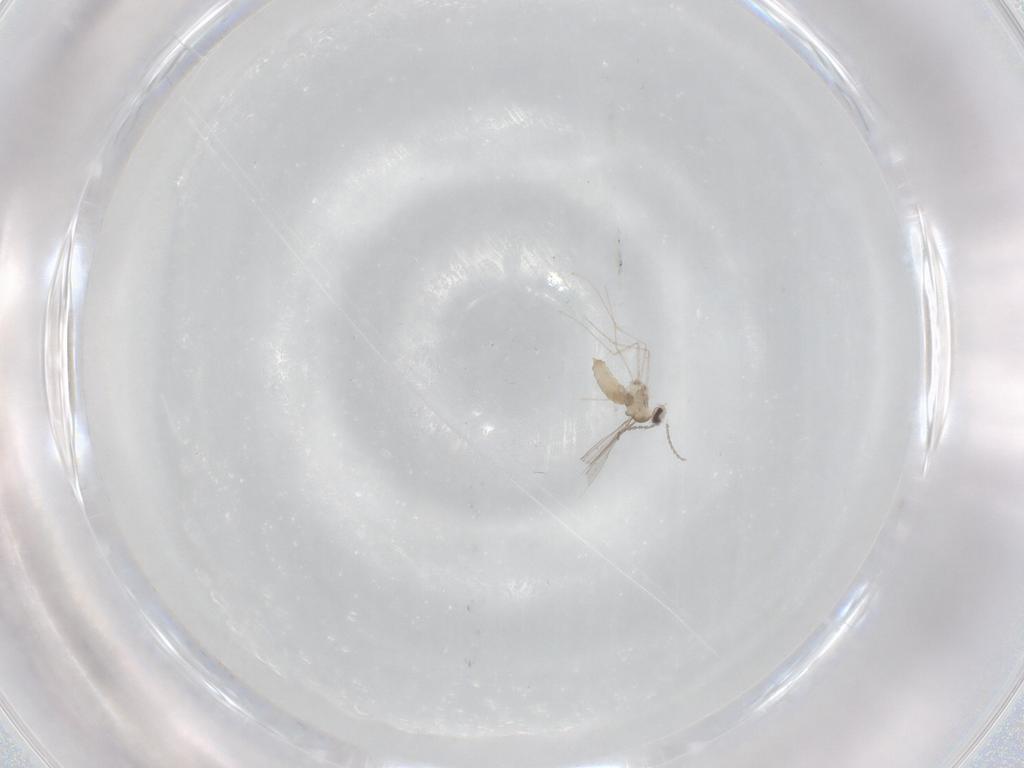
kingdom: Animalia
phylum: Arthropoda
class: Insecta
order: Diptera
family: Cecidomyiidae
